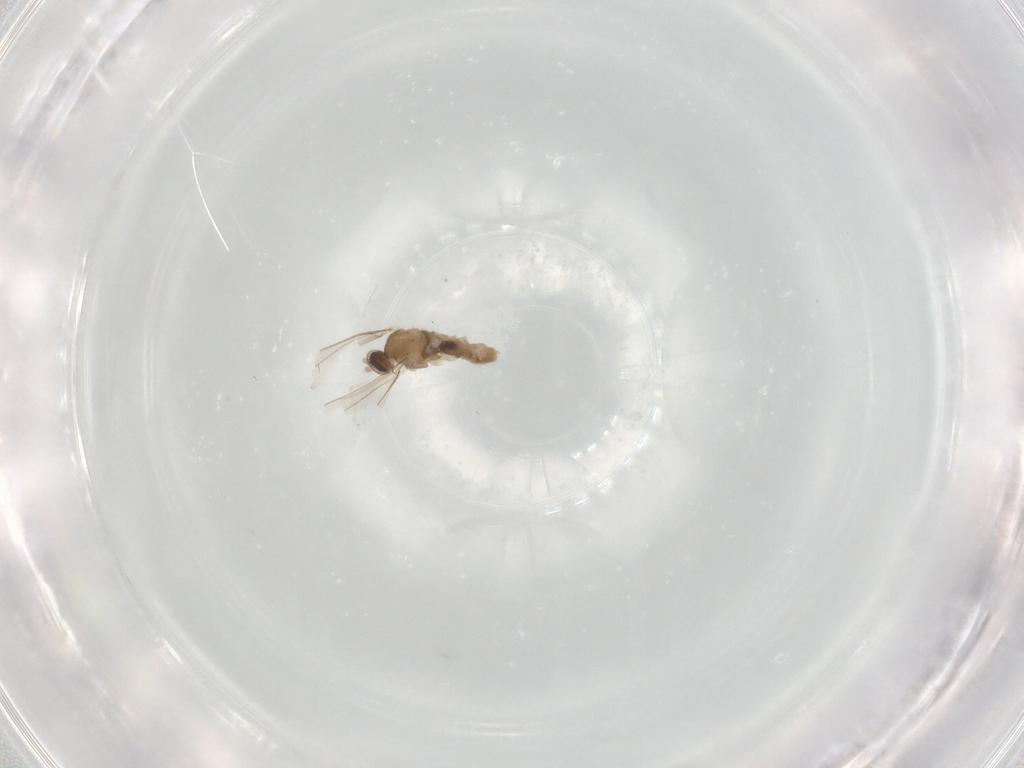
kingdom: Animalia
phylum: Arthropoda
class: Insecta
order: Diptera
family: Cecidomyiidae
